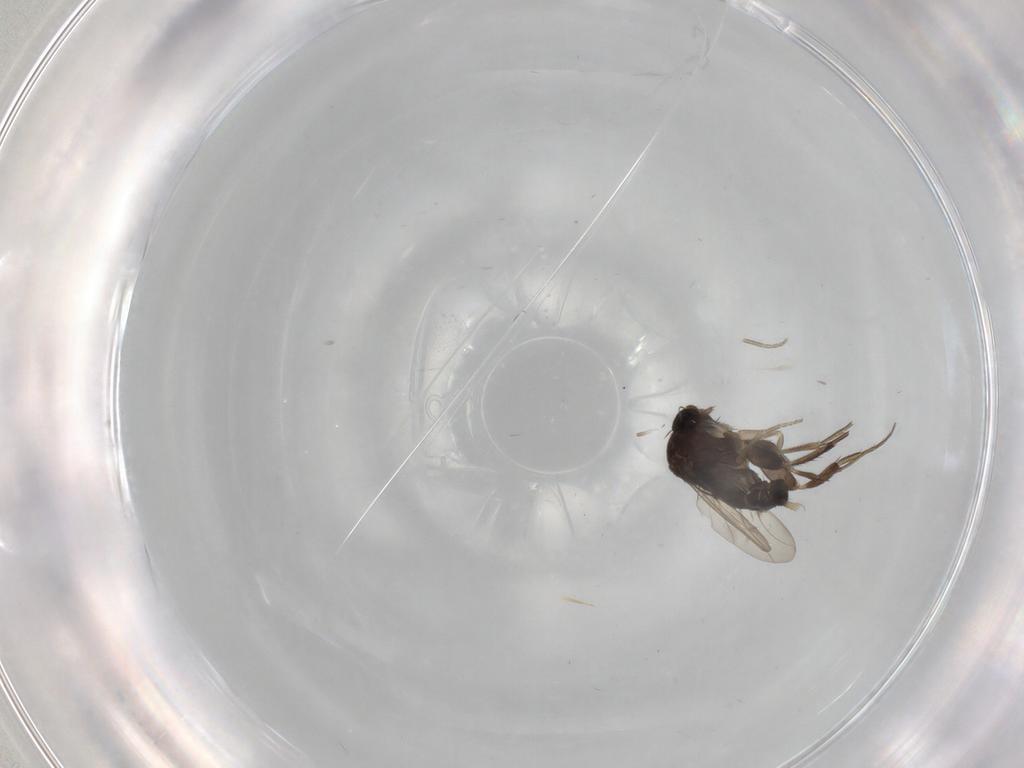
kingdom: Animalia
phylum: Arthropoda
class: Insecta
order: Diptera
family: Phoridae
